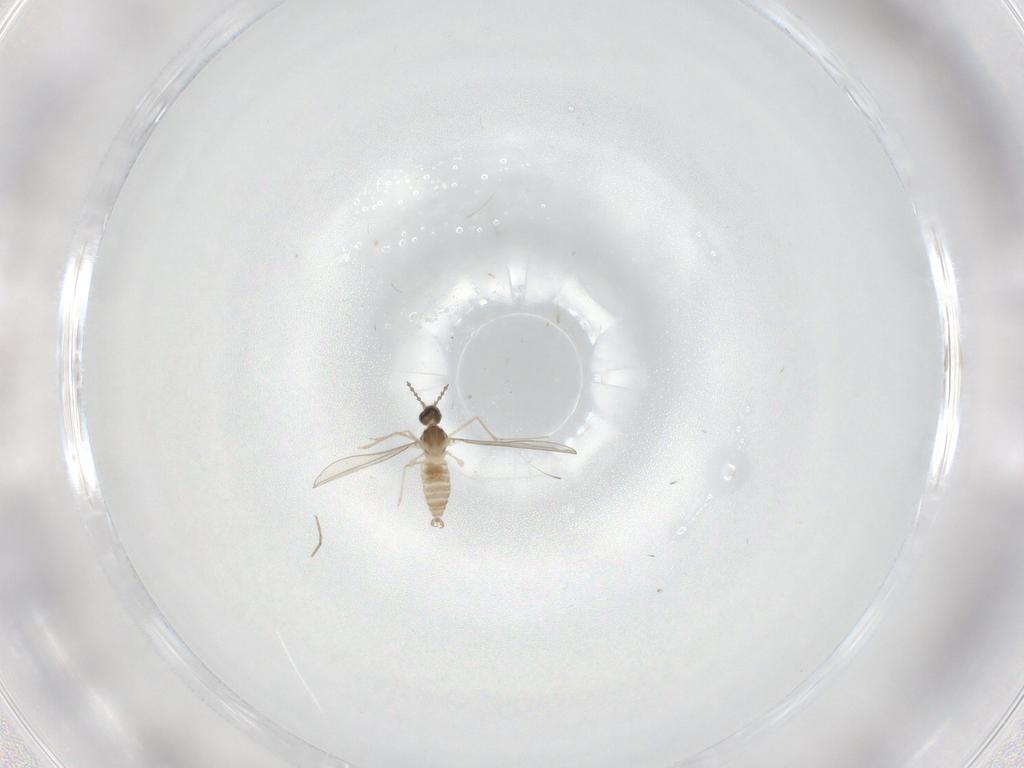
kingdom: Animalia
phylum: Arthropoda
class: Insecta
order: Diptera
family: Cecidomyiidae
